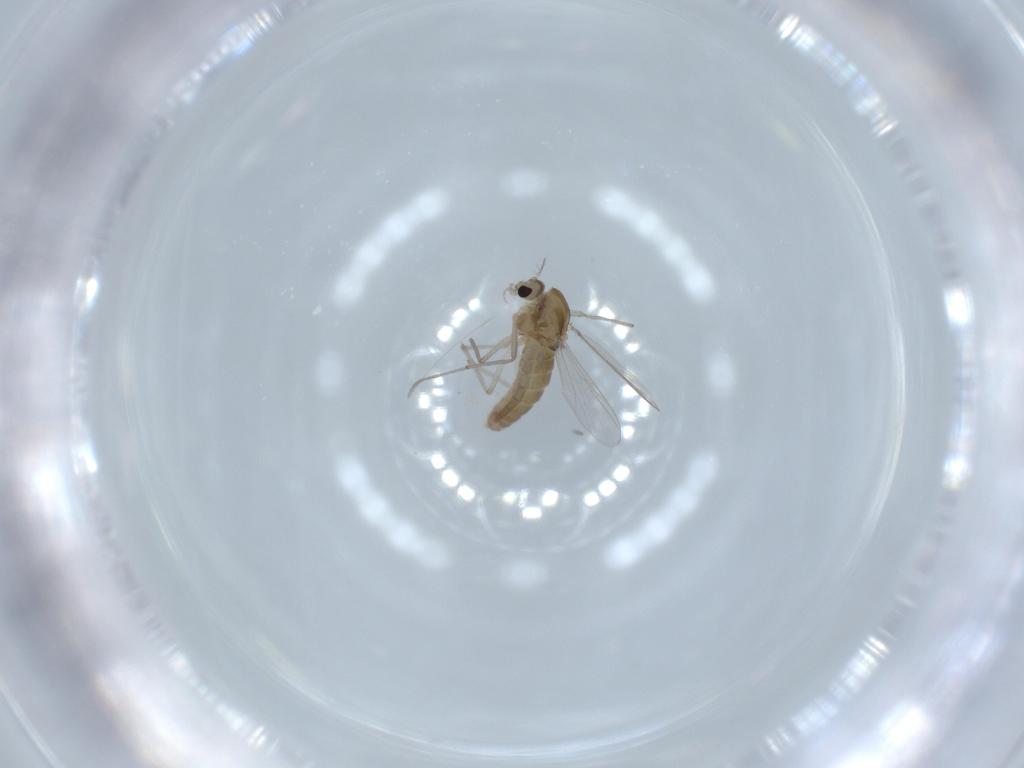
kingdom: Animalia
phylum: Arthropoda
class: Insecta
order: Diptera
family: Chironomidae
